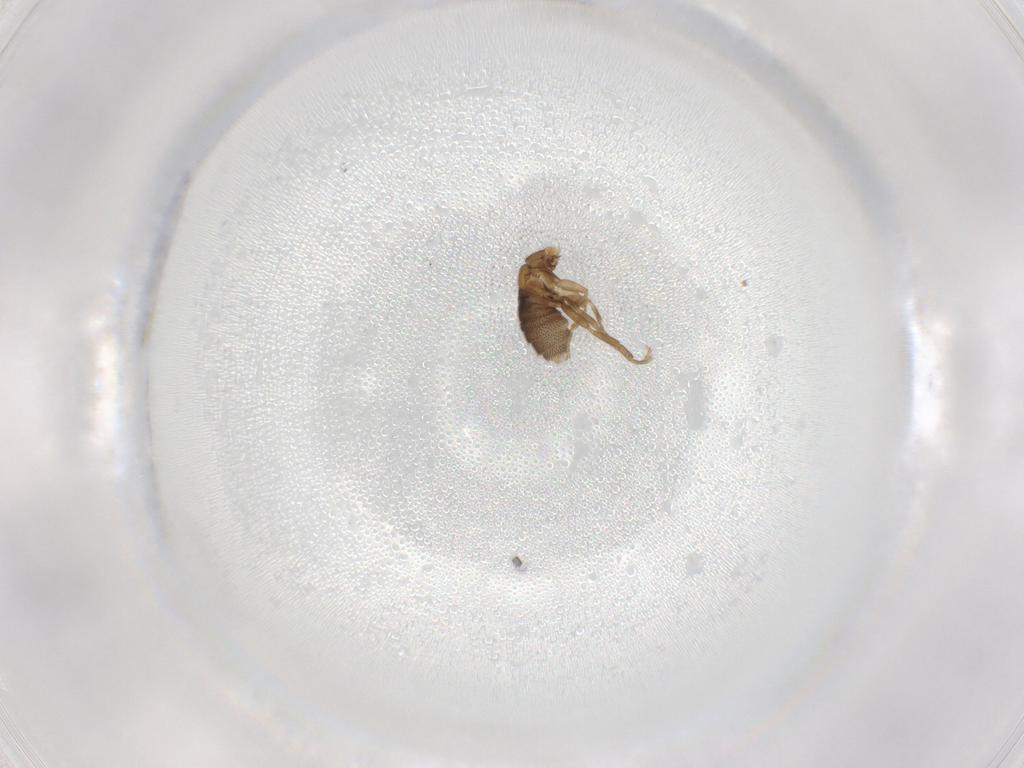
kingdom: Animalia
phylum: Arthropoda
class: Insecta
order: Diptera
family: Phoridae
